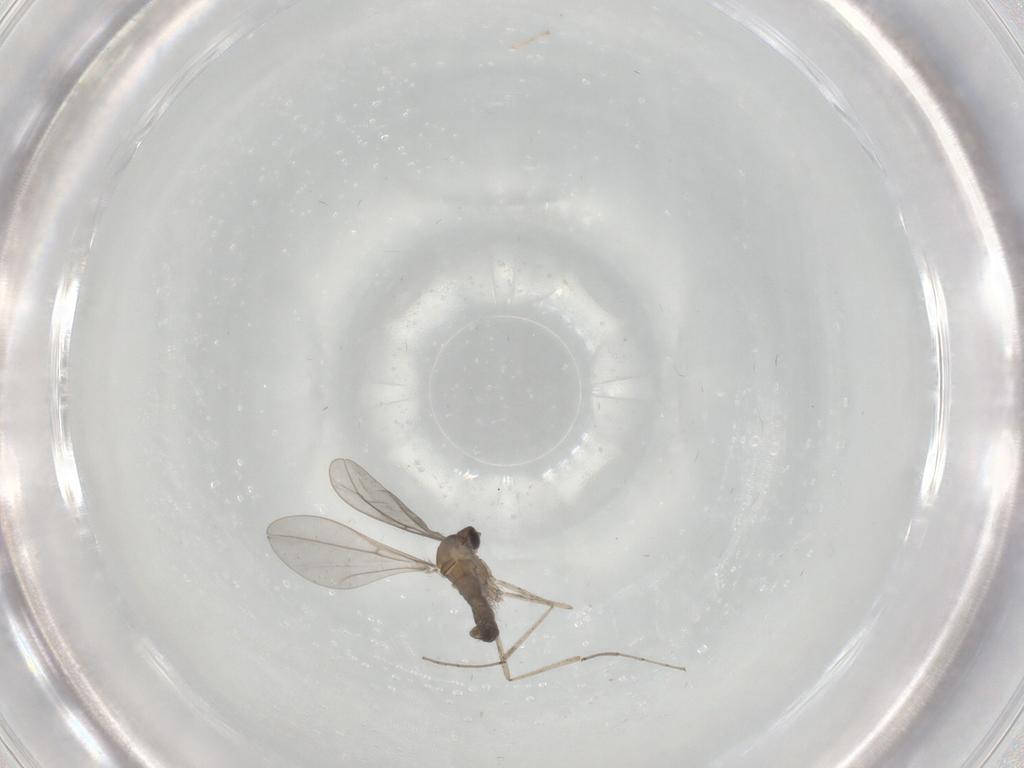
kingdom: Animalia
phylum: Arthropoda
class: Insecta
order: Diptera
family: Cecidomyiidae
